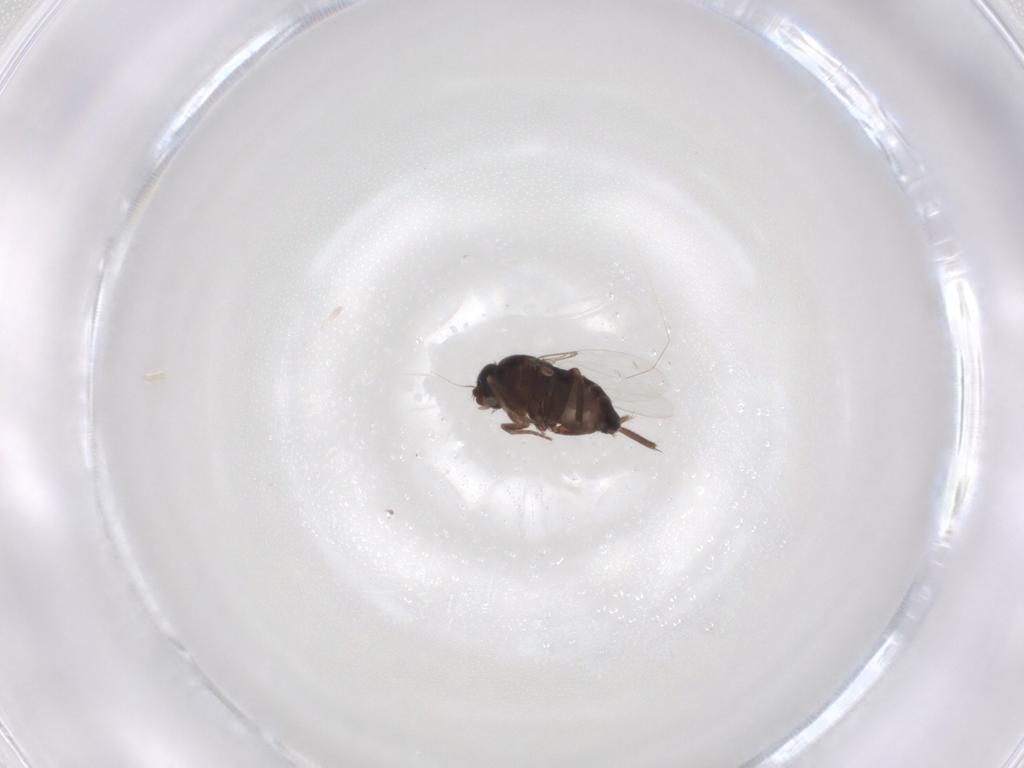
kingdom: Animalia
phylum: Arthropoda
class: Insecta
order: Diptera
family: Phoridae
